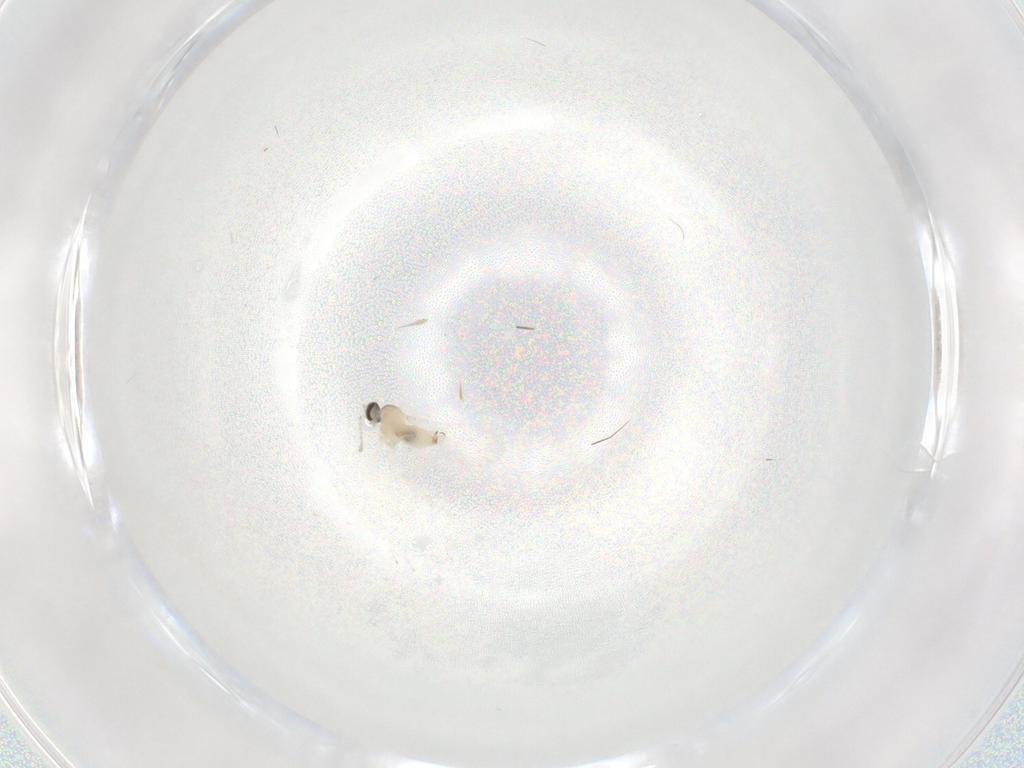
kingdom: Animalia
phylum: Arthropoda
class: Insecta
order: Diptera
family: Cecidomyiidae
